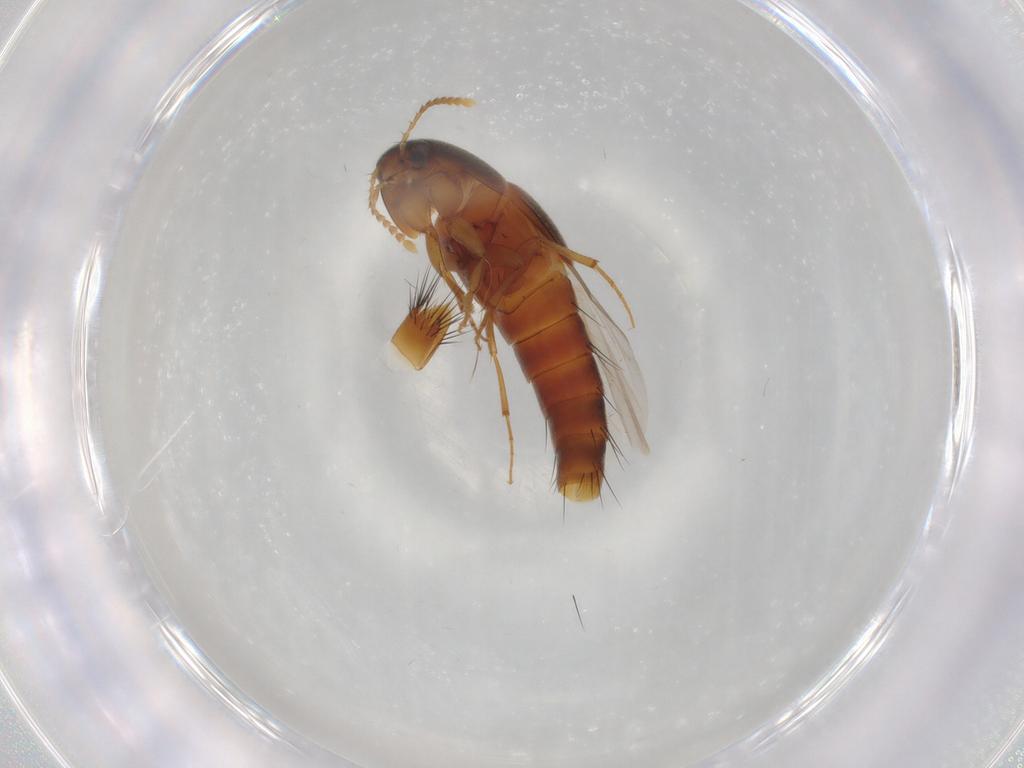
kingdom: Animalia
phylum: Arthropoda
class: Insecta
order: Coleoptera
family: Staphylinidae
